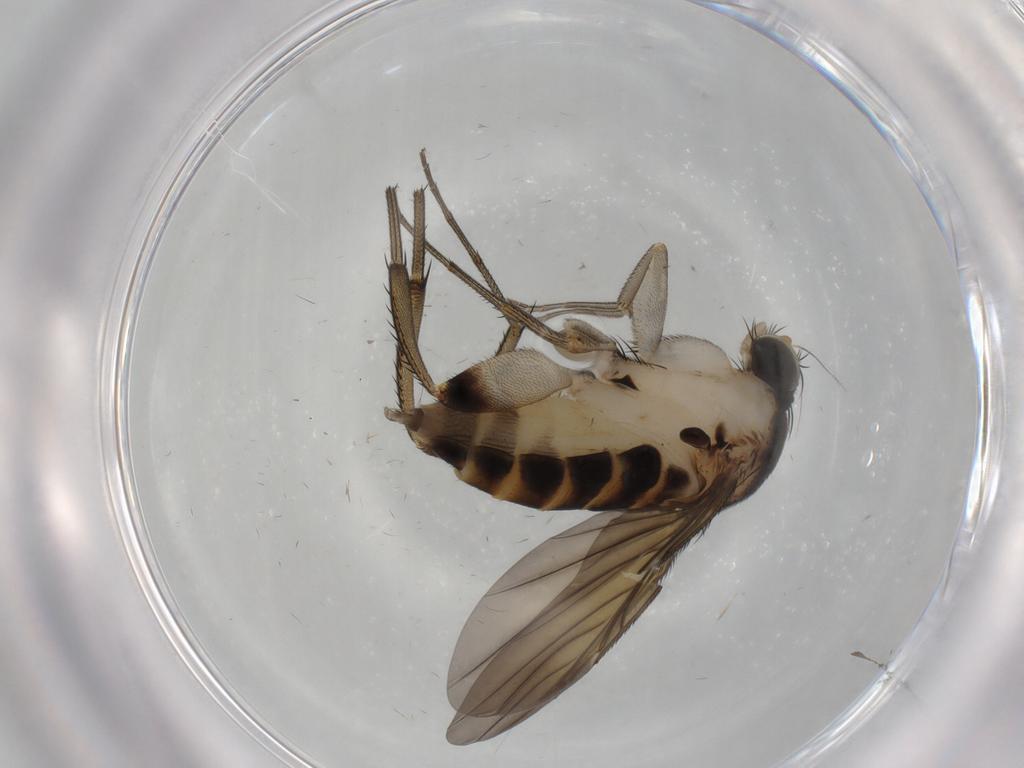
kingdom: Animalia
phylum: Arthropoda
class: Insecta
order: Diptera
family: Phoridae
